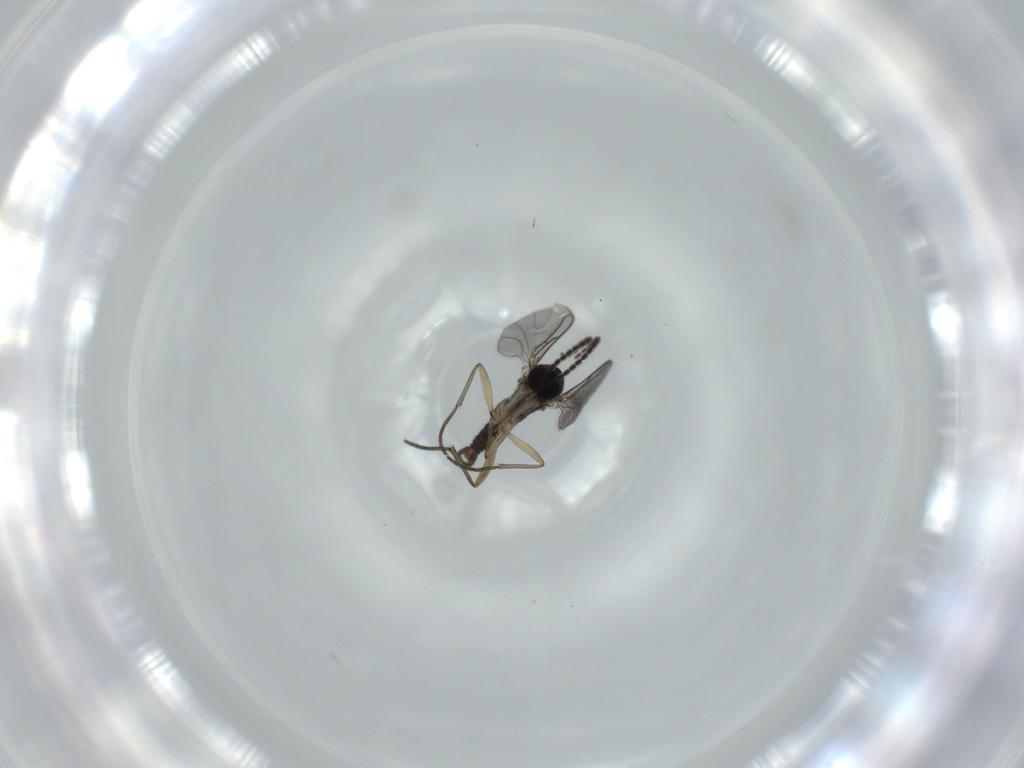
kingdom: Animalia
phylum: Arthropoda
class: Insecta
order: Diptera
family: Sciaridae
